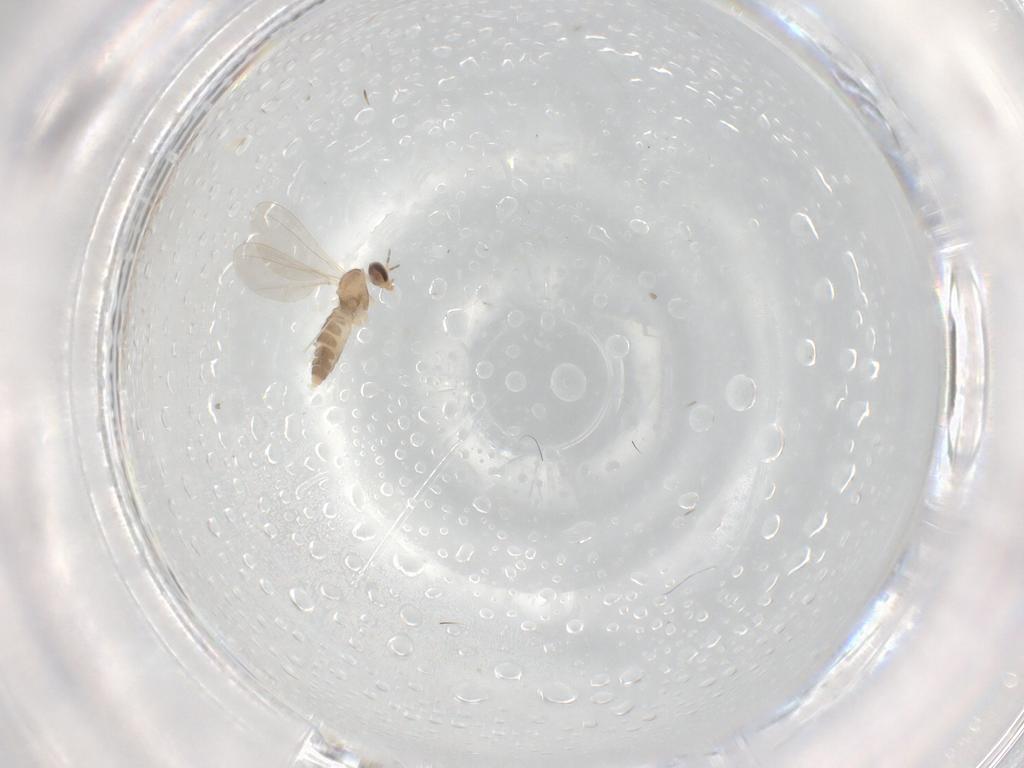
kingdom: Animalia
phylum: Arthropoda
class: Insecta
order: Diptera
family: Cecidomyiidae
